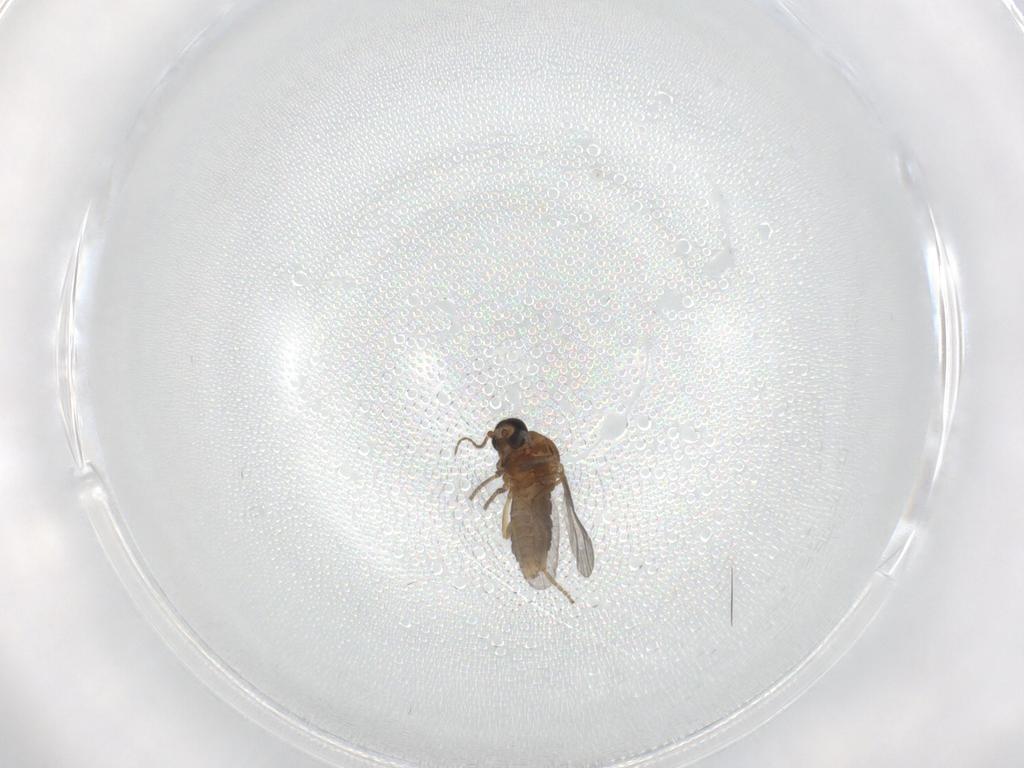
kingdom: Animalia
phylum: Arthropoda
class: Insecta
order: Diptera
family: Ceratopogonidae
